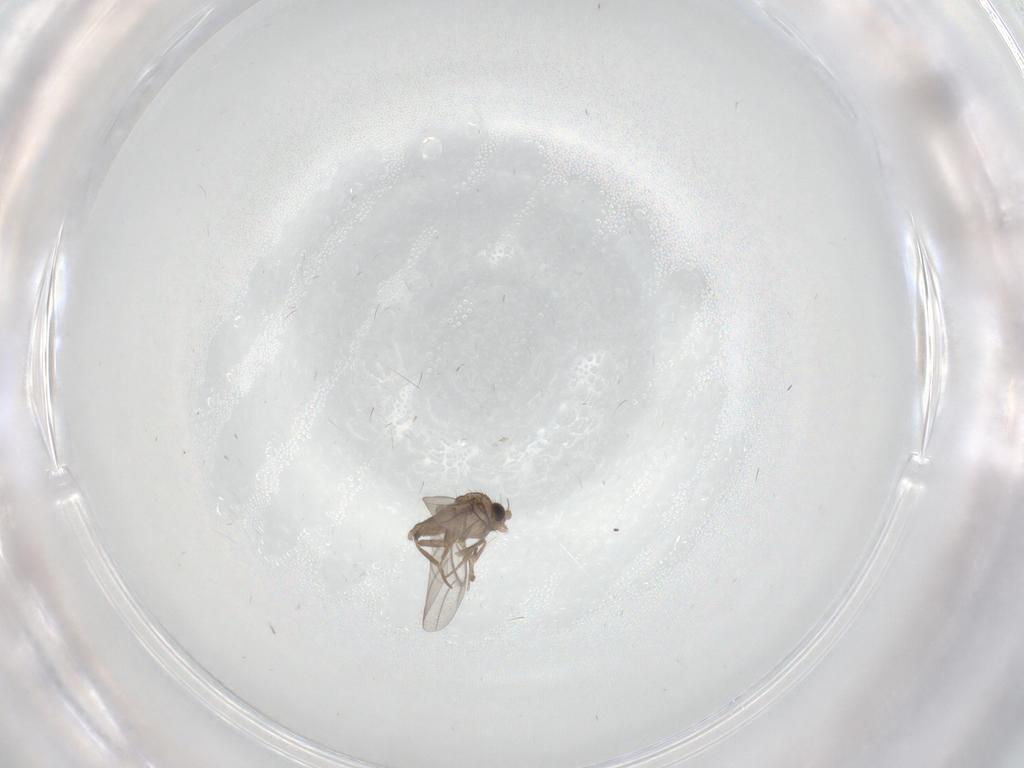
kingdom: Animalia
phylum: Arthropoda
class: Insecta
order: Diptera
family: Cecidomyiidae
